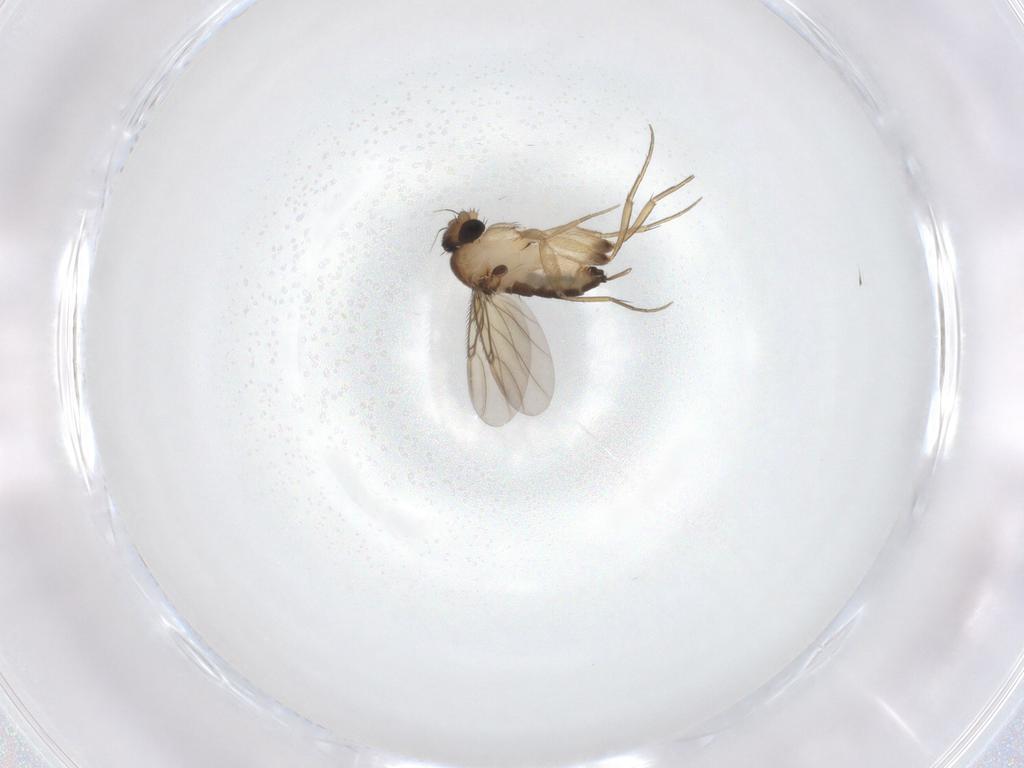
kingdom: Animalia
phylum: Arthropoda
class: Insecta
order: Diptera
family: Phoridae
